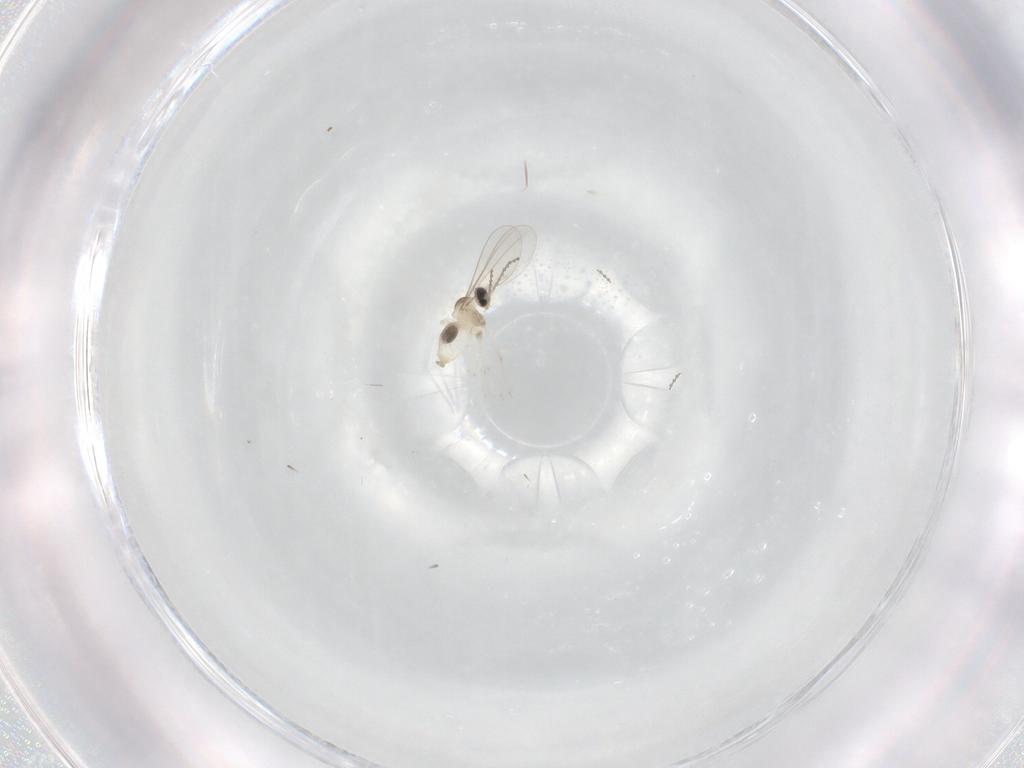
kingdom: Animalia
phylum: Arthropoda
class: Insecta
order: Diptera
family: Cecidomyiidae
